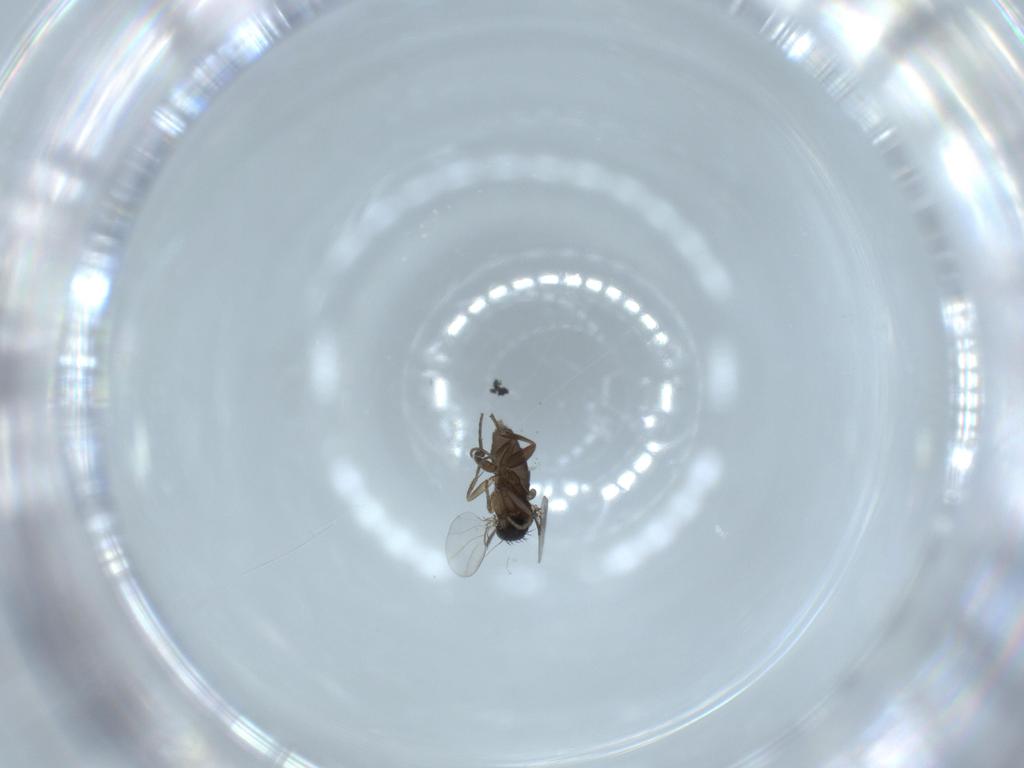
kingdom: Animalia
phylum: Arthropoda
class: Insecta
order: Diptera
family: Phoridae
